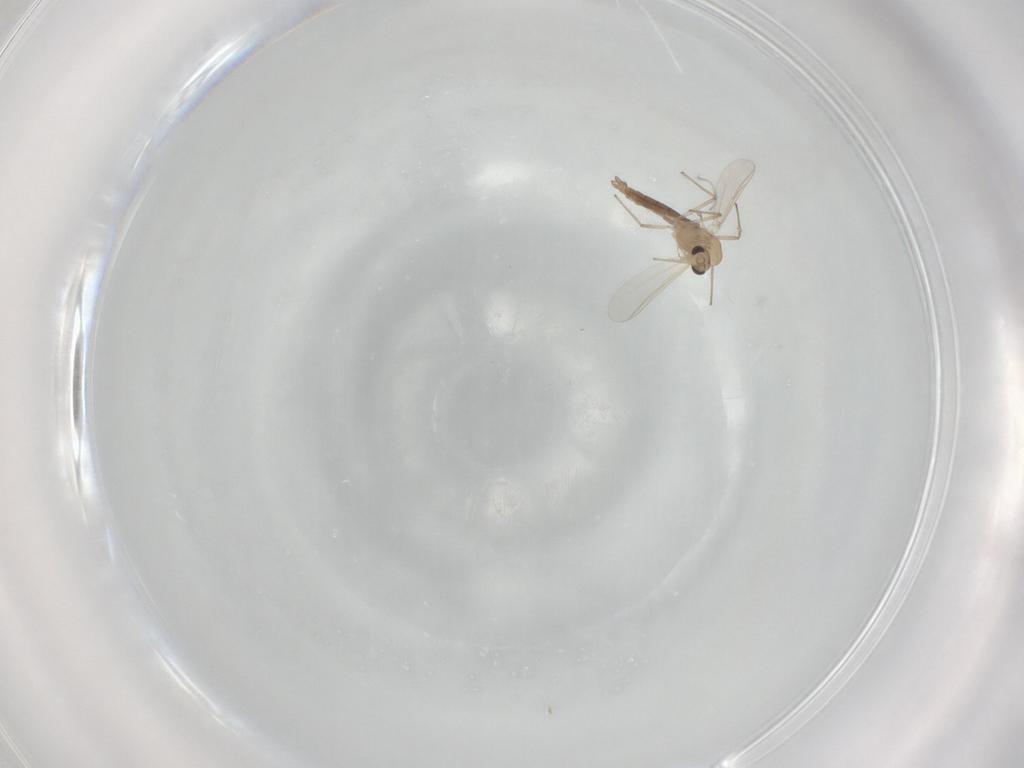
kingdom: Animalia
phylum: Arthropoda
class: Insecta
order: Diptera
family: Chironomidae
